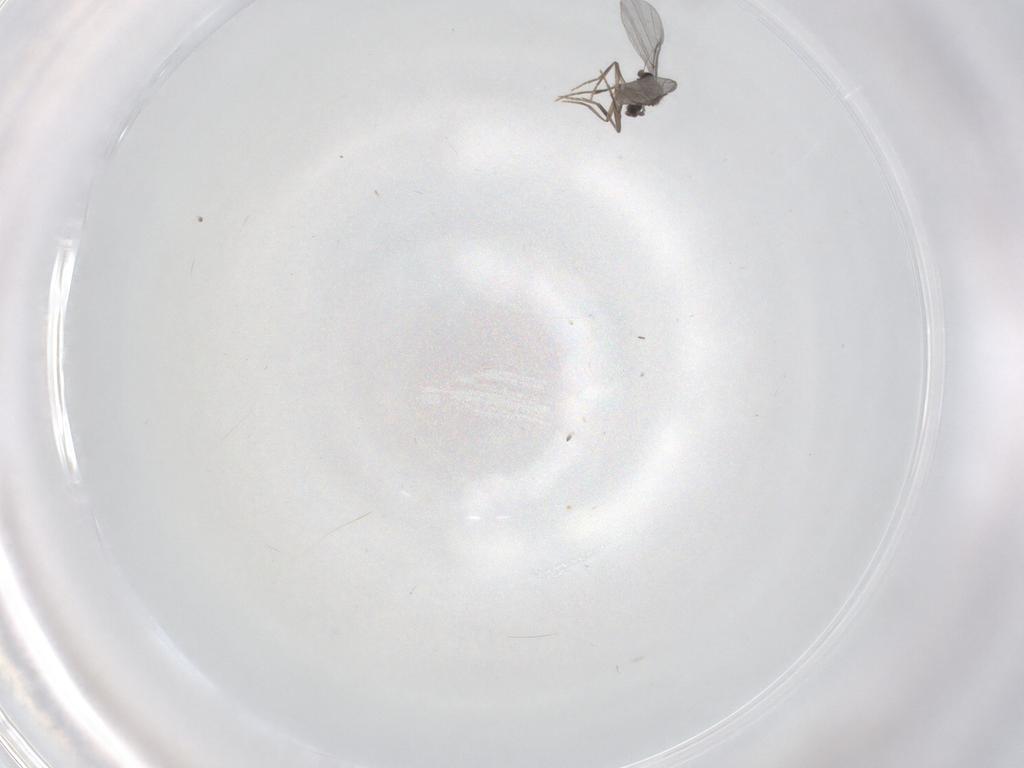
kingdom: Animalia
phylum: Arthropoda
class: Insecta
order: Diptera
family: Phoridae
